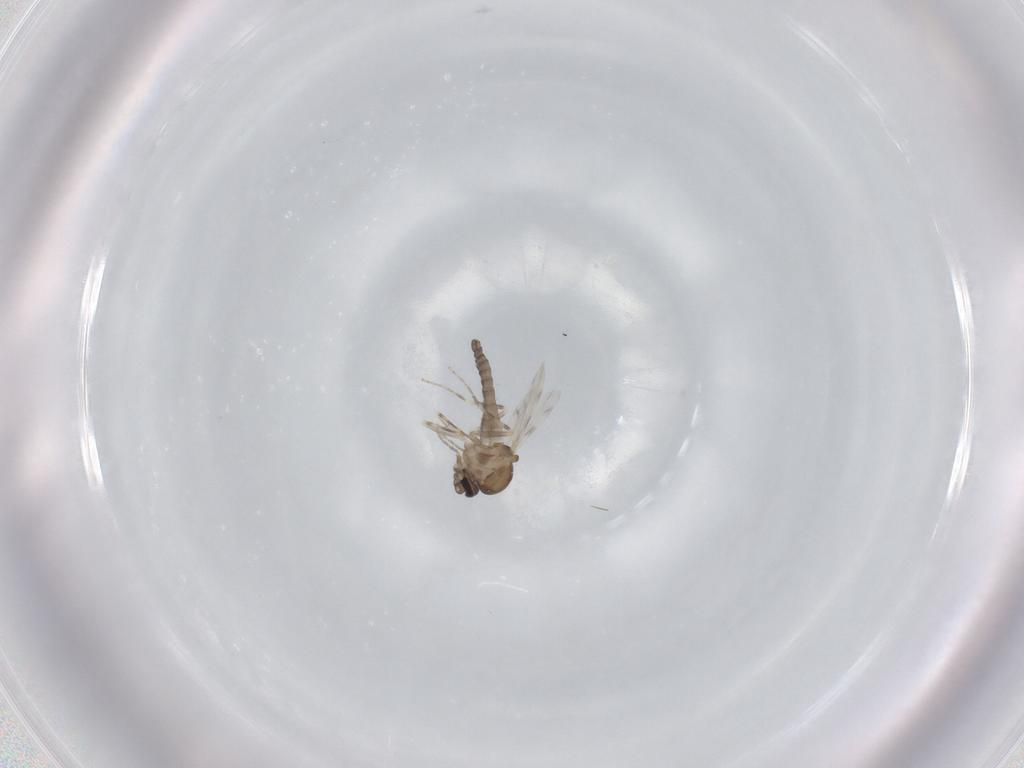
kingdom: Animalia
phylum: Arthropoda
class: Insecta
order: Diptera
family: Ceratopogonidae
